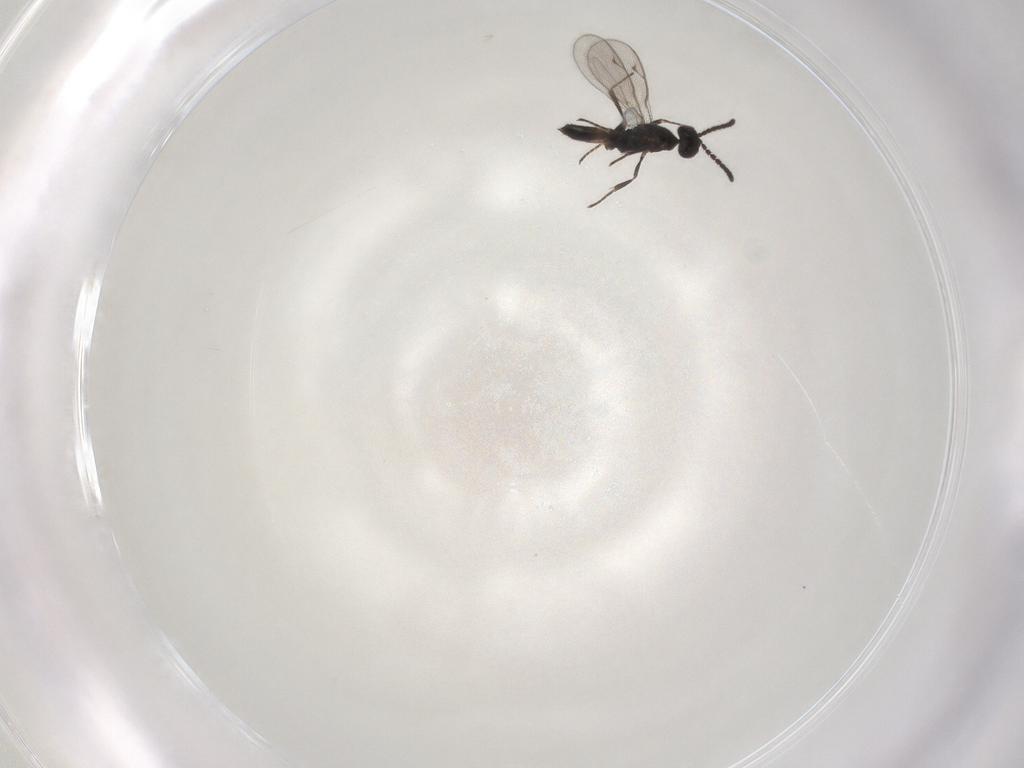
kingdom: Animalia
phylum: Arthropoda
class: Insecta
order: Hymenoptera
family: Eupelmidae
